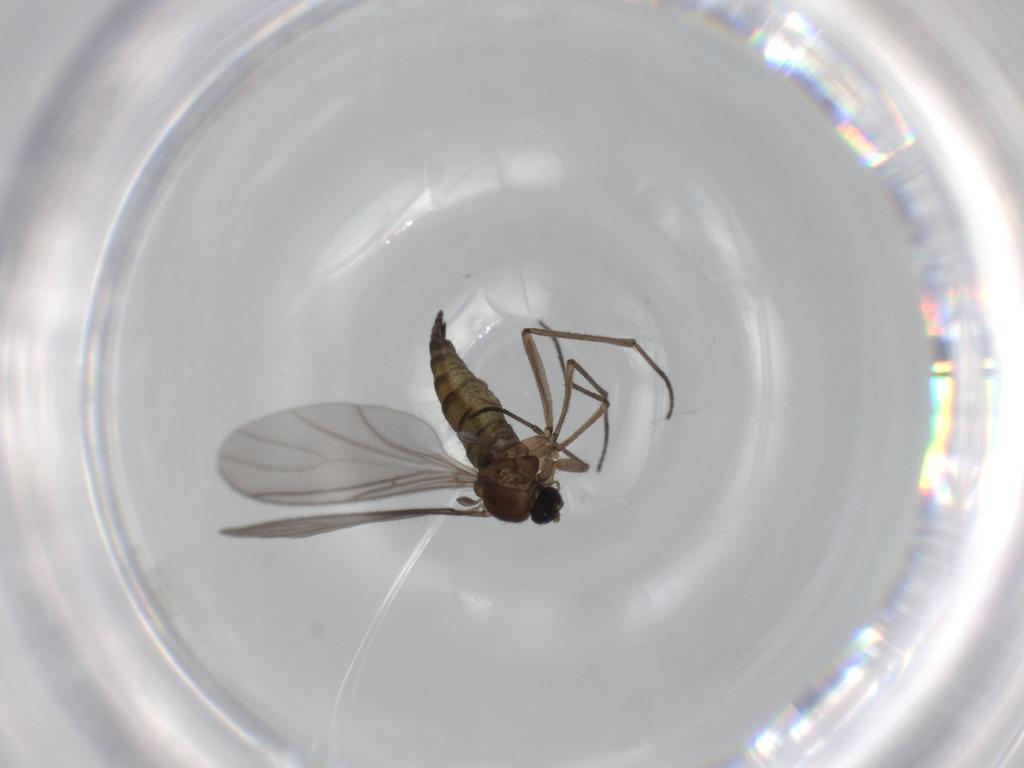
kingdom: Animalia
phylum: Arthropoda
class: Insecta
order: Diptera
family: Sciaridae
